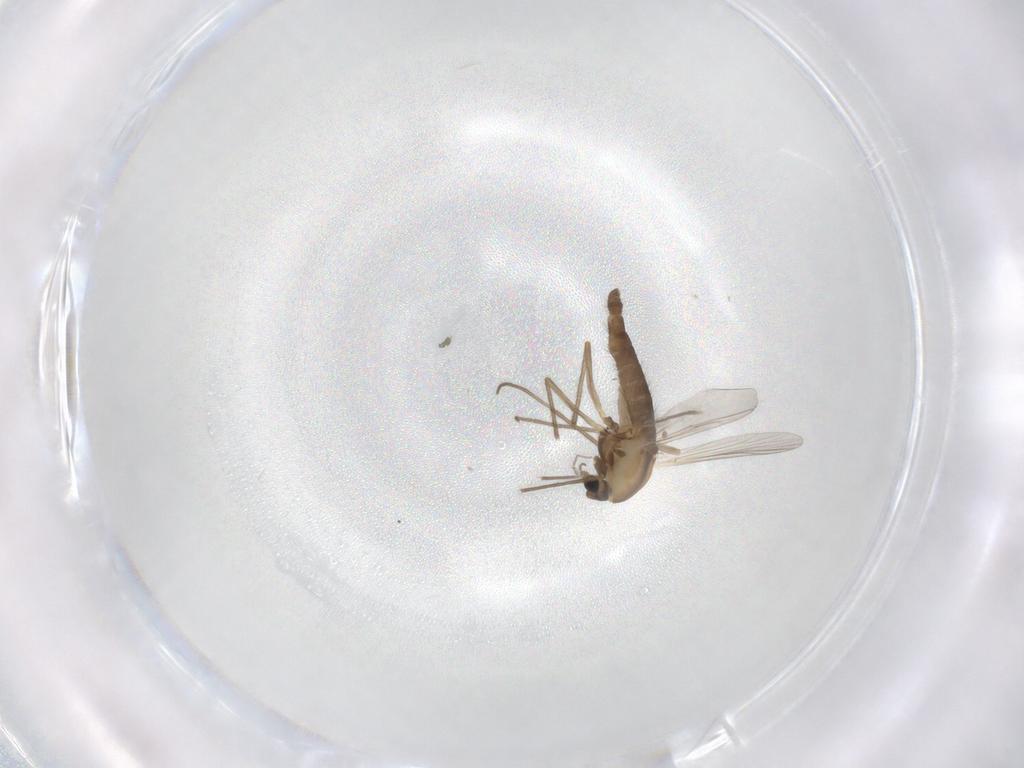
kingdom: Animalia
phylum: Arthropoda
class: Insecta
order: Diptera
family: Chironomidae
